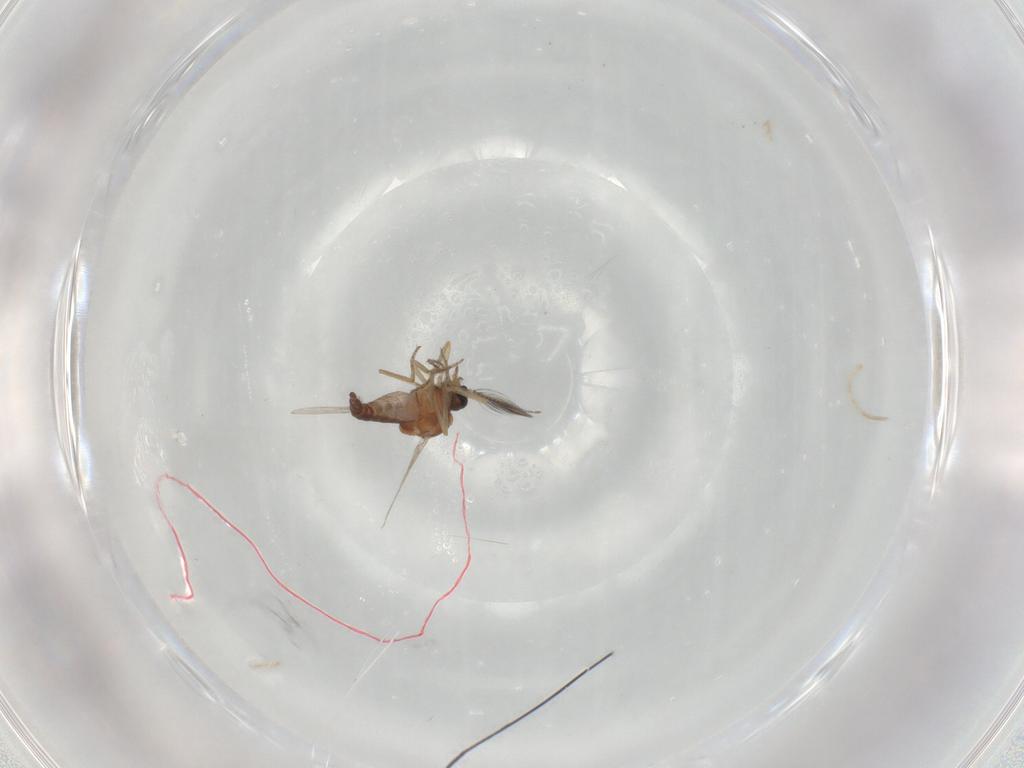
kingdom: Animalia
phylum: Arthropoda
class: Insecta
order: Diptera
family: Ceratopogonidae
